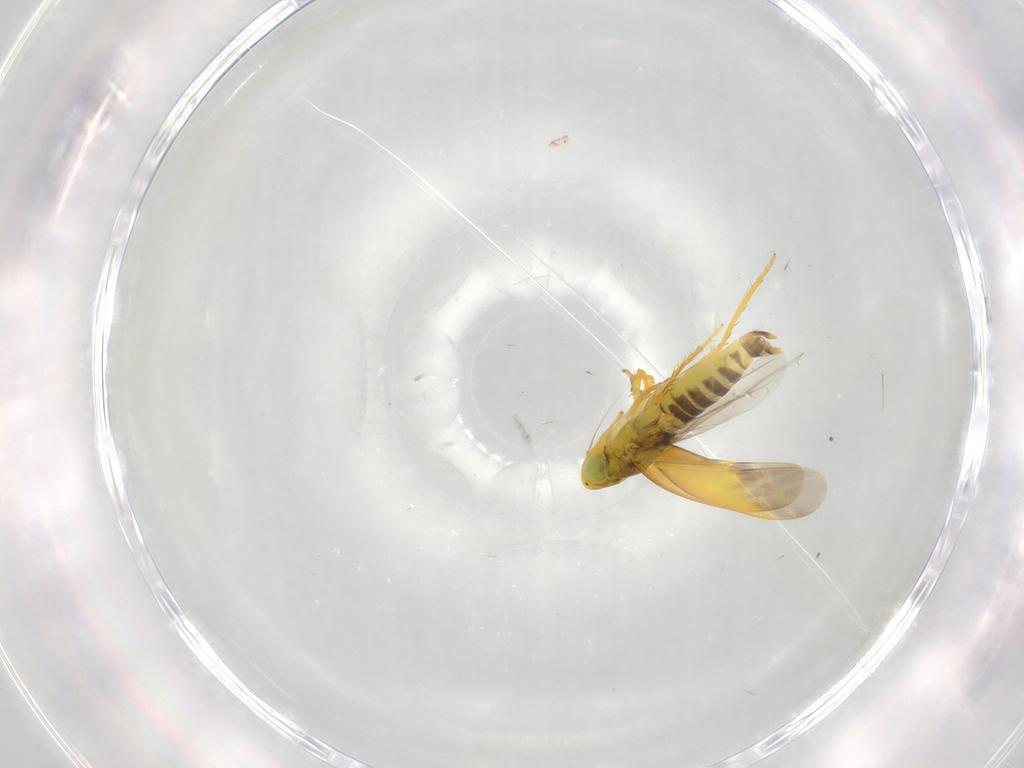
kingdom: Animalia
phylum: Arthropoda
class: Insecta
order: Hemiptera
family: Cicadellidae
